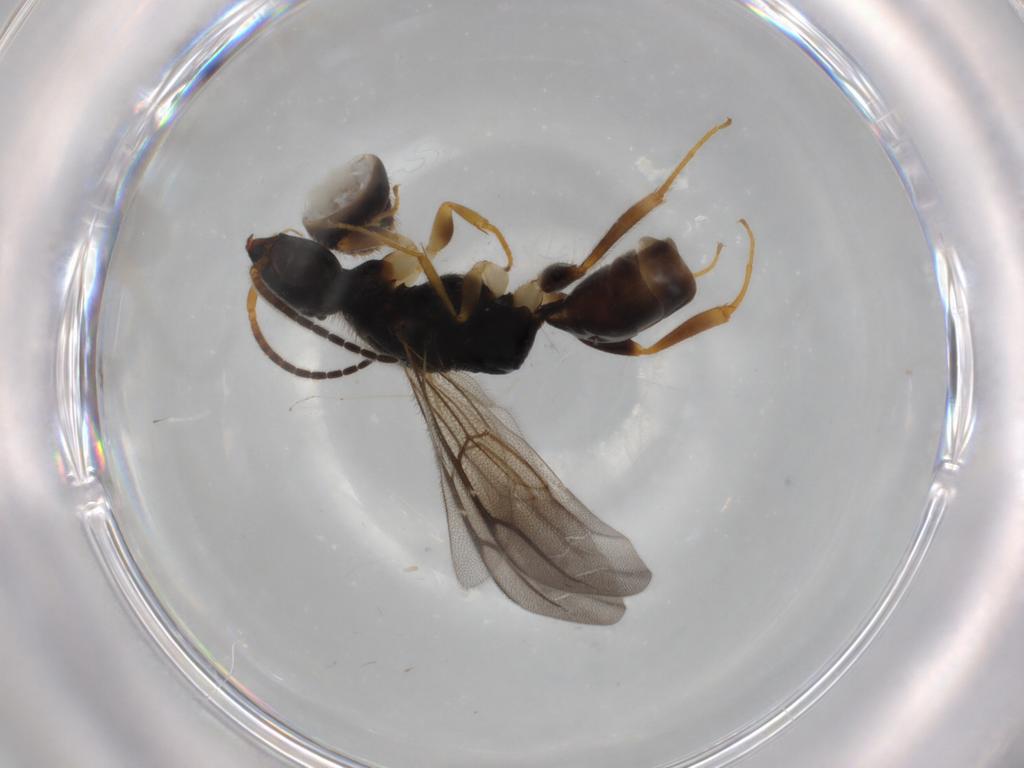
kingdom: Animalia
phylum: Arthropoda
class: Insecta
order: Hymenoptera
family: Bethylidae
